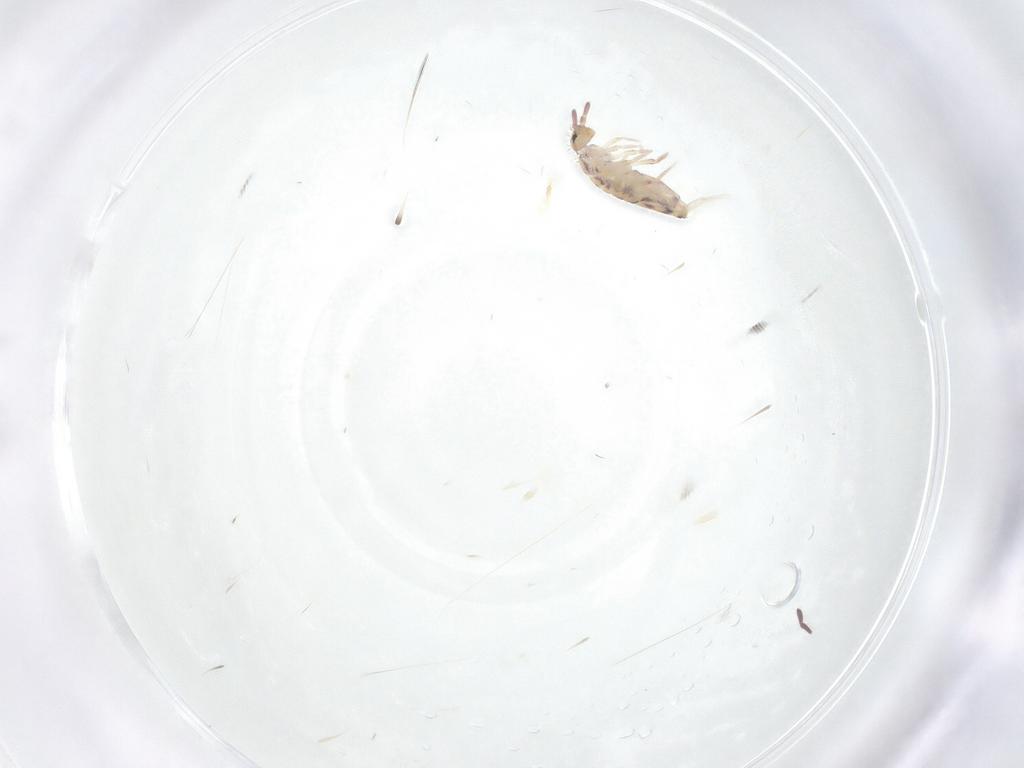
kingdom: Animalia
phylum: Arthropoda
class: Collembola
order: Entomobryomorpha
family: Entomobryidae
